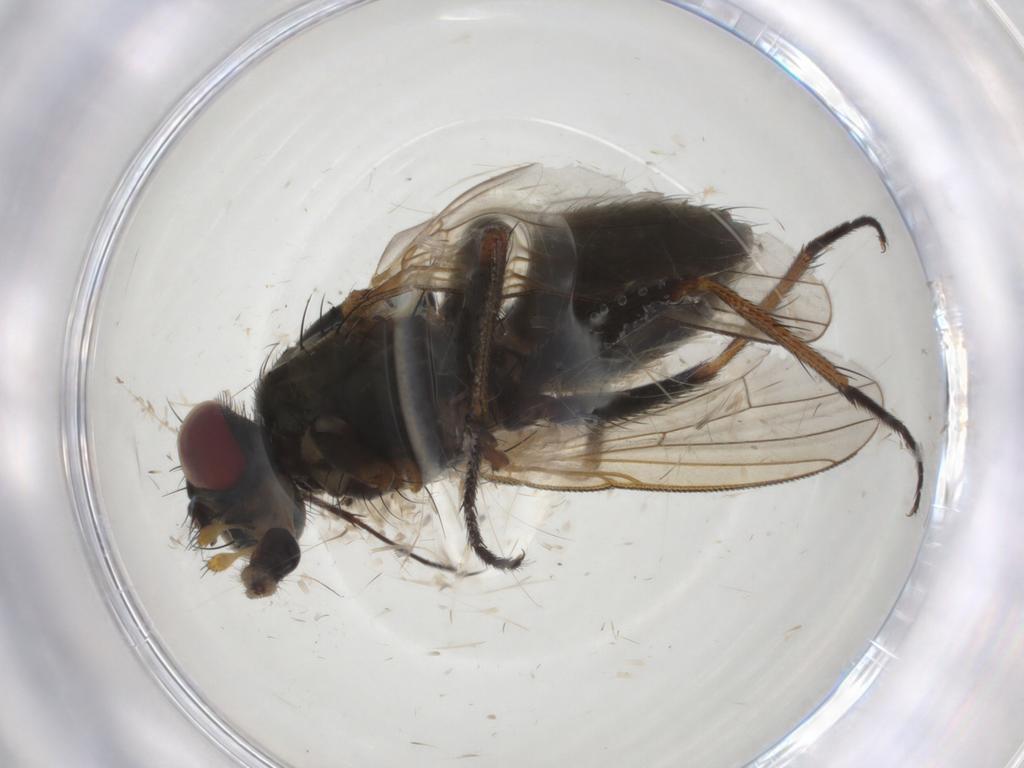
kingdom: Animalia
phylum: Arthropoda
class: Insecta
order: Diptera
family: Dolichopodidae
